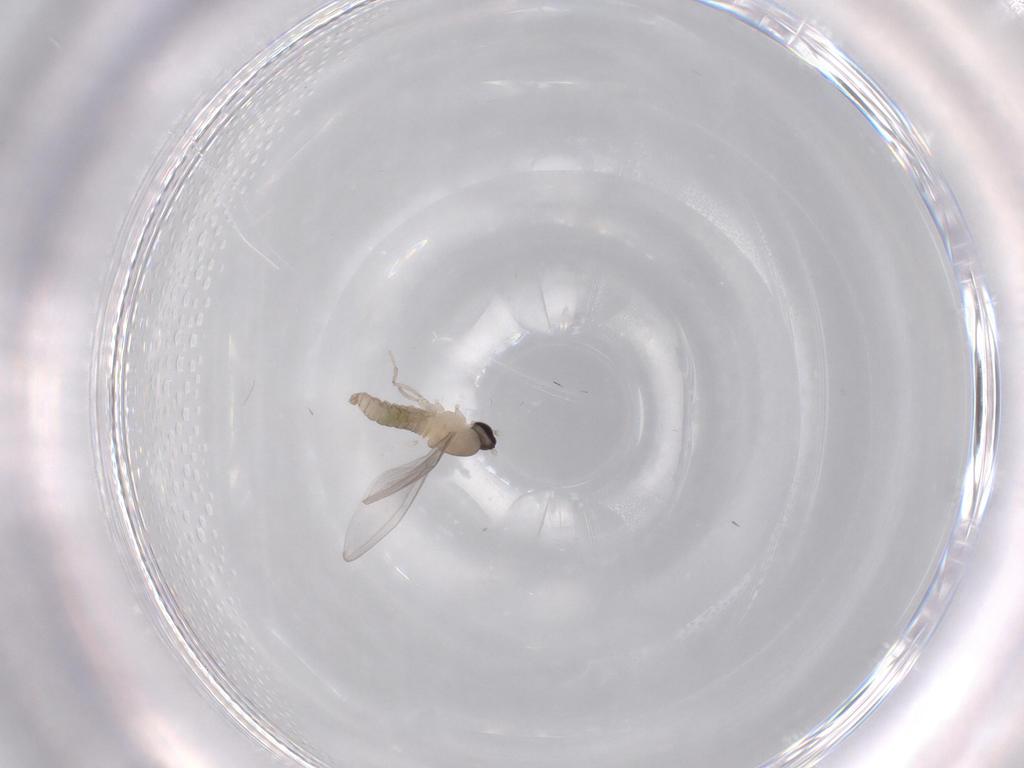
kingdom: Animalia
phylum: Arthropoda
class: Insecta
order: Diptera
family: Cecidomyiidae
